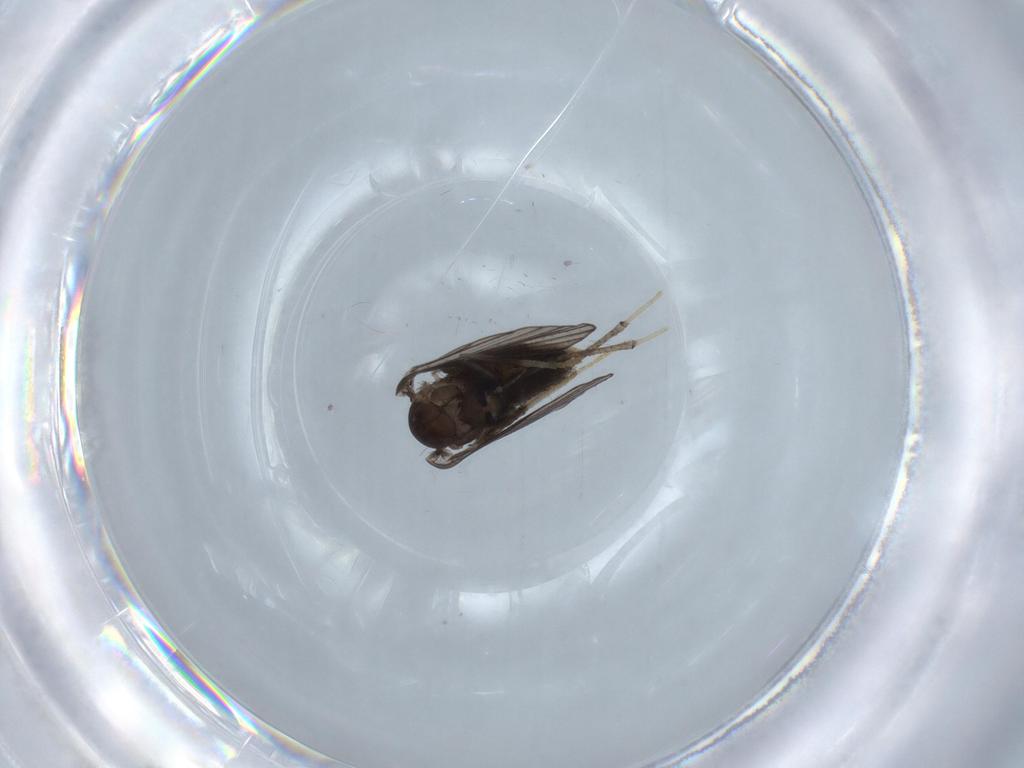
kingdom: Animalia
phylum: Arthropoda
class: Insecta
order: Diptera
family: Psychodidae
